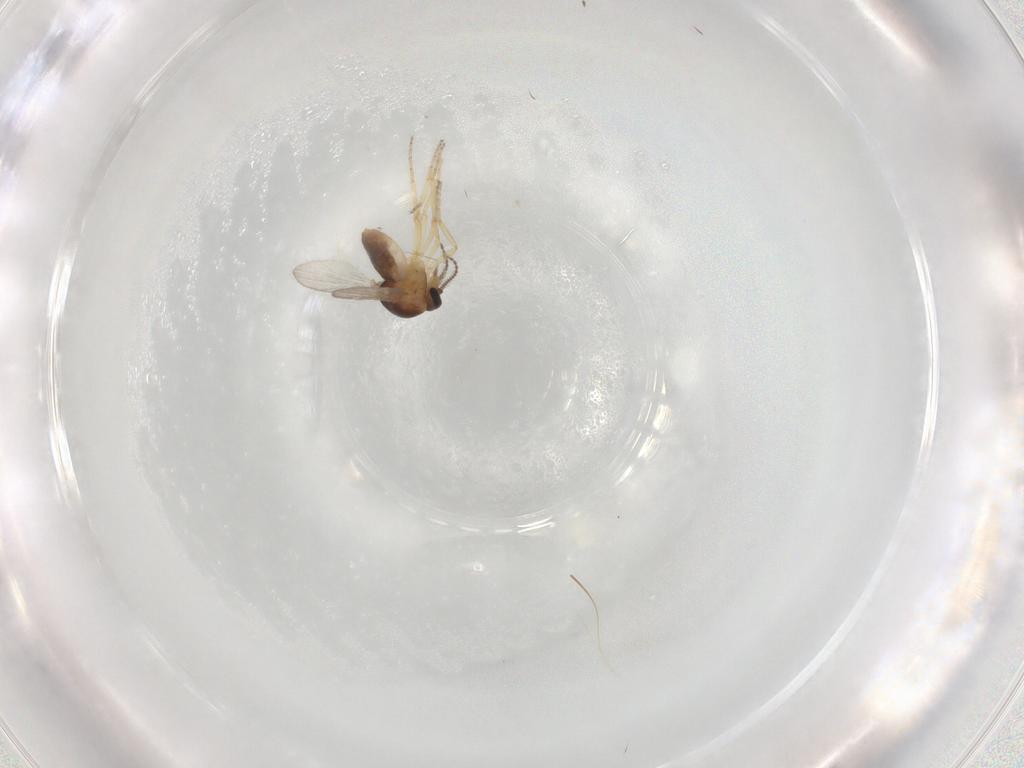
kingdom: Animalia
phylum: Arthropoda
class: Insecta
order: Diptera
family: Ceratopogonidae
